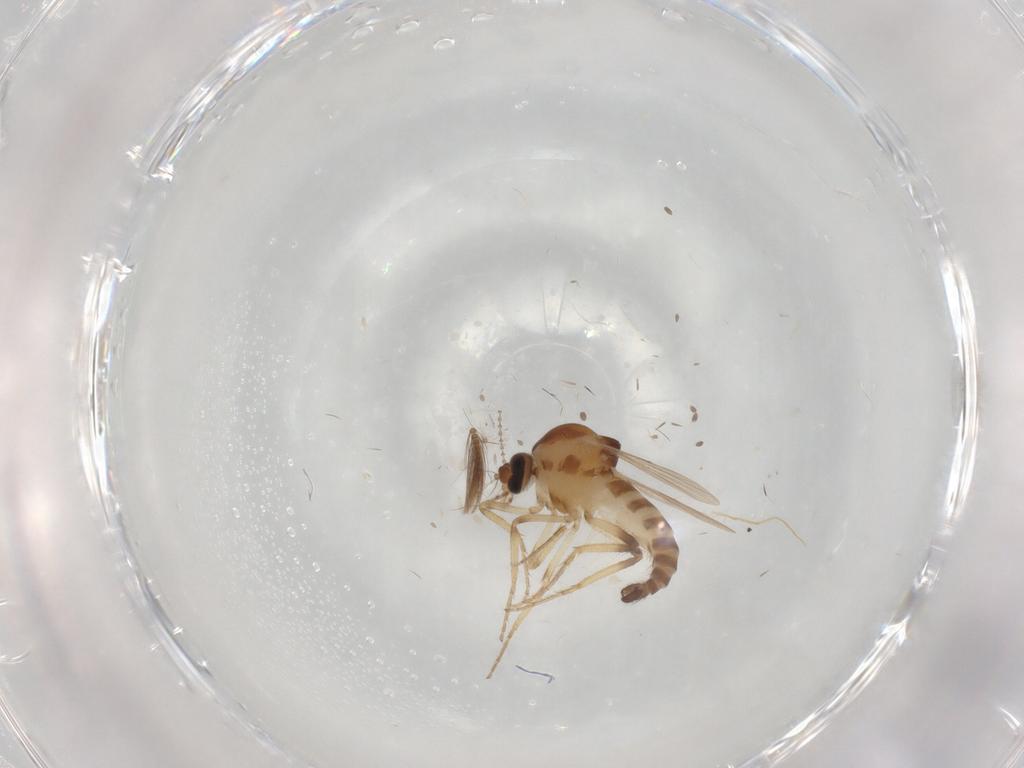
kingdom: Animalia
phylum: Arthropoda
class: Insecta
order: Diptera
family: Ceratopogonidae
